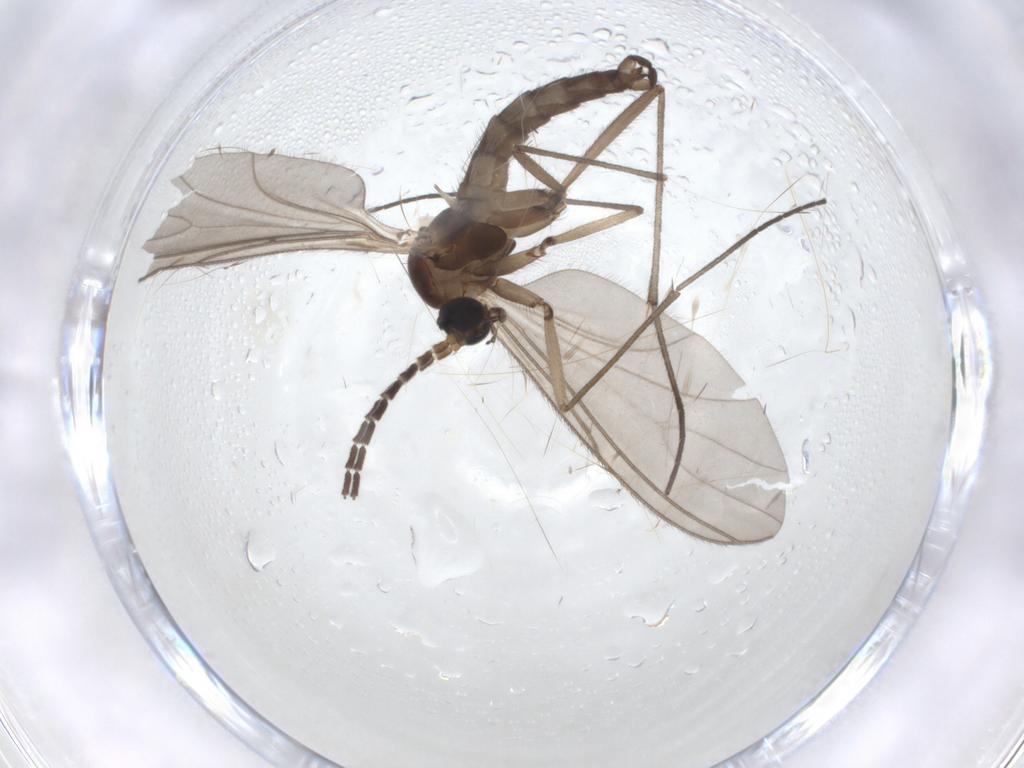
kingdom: Animalia
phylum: Arthropoda
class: Insecta
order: Diptera
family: Sciaridae
